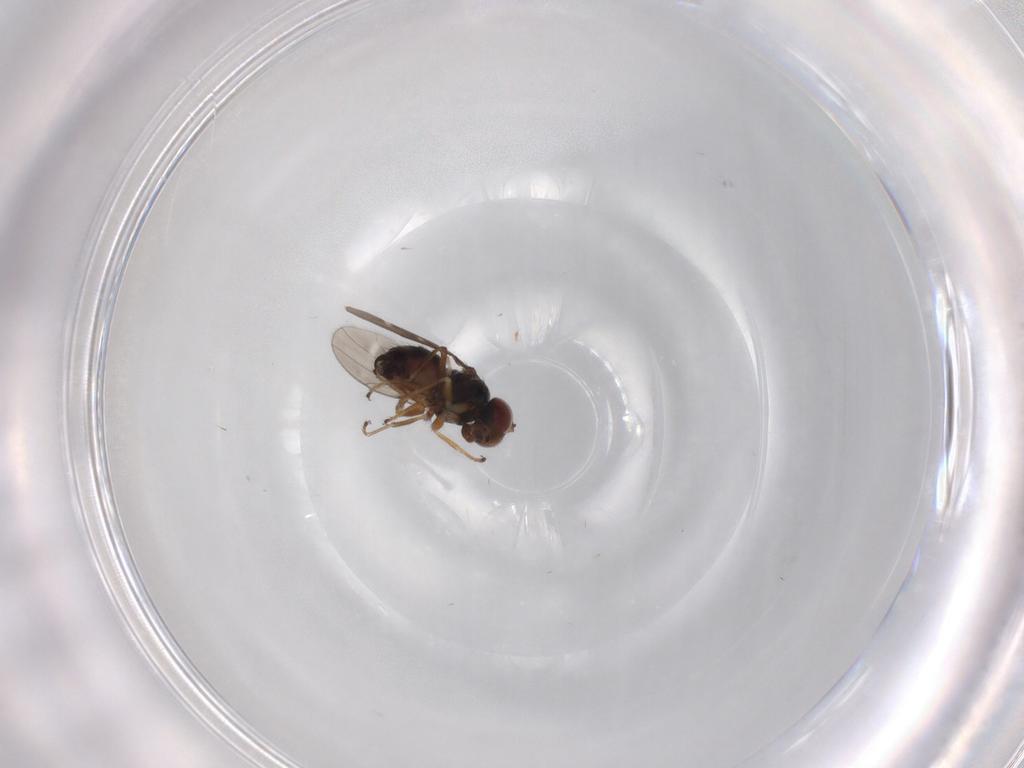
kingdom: Animalia
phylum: Arthropoda
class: Insecta
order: Diptera
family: Ephydridae
